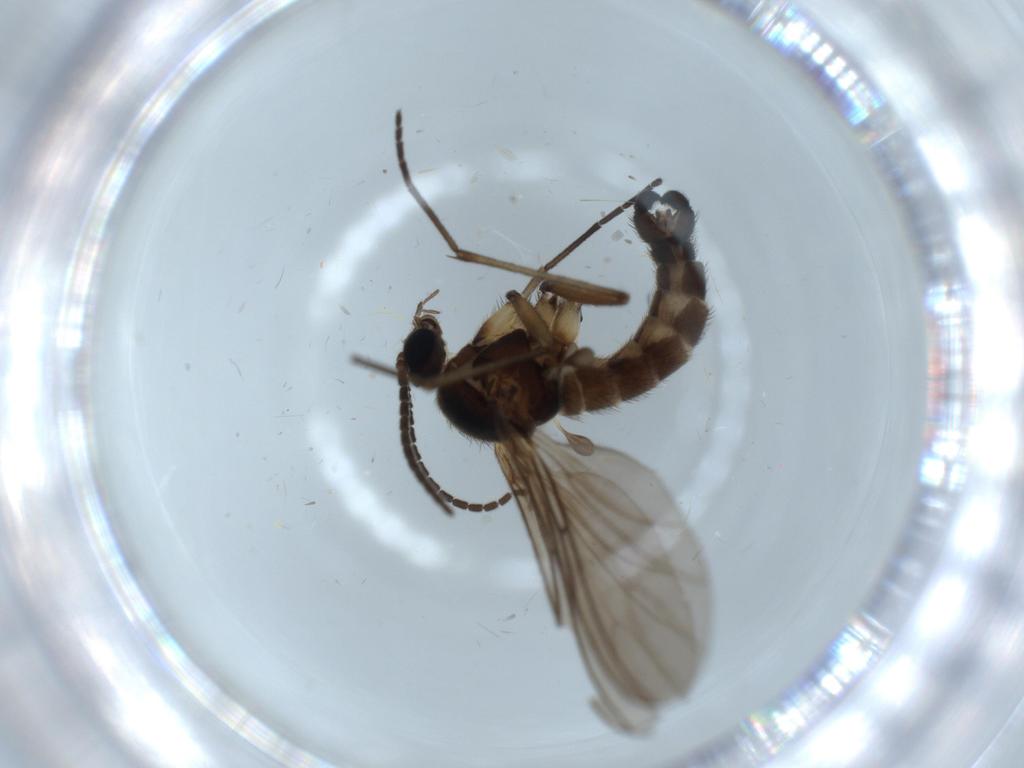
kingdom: Animalia
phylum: Arthropoda
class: Insecta
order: Diptera
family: Sciaridae
